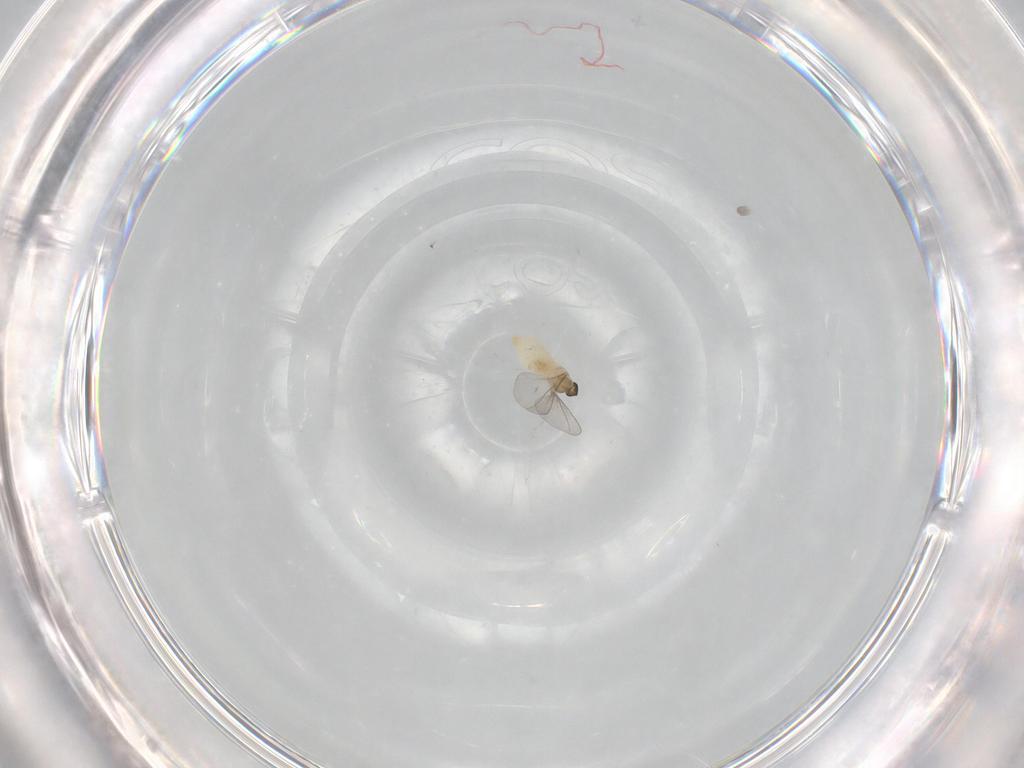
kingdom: Animalia
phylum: Arthropoda
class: Insecta
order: Diptera
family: Cecidomyiidae
